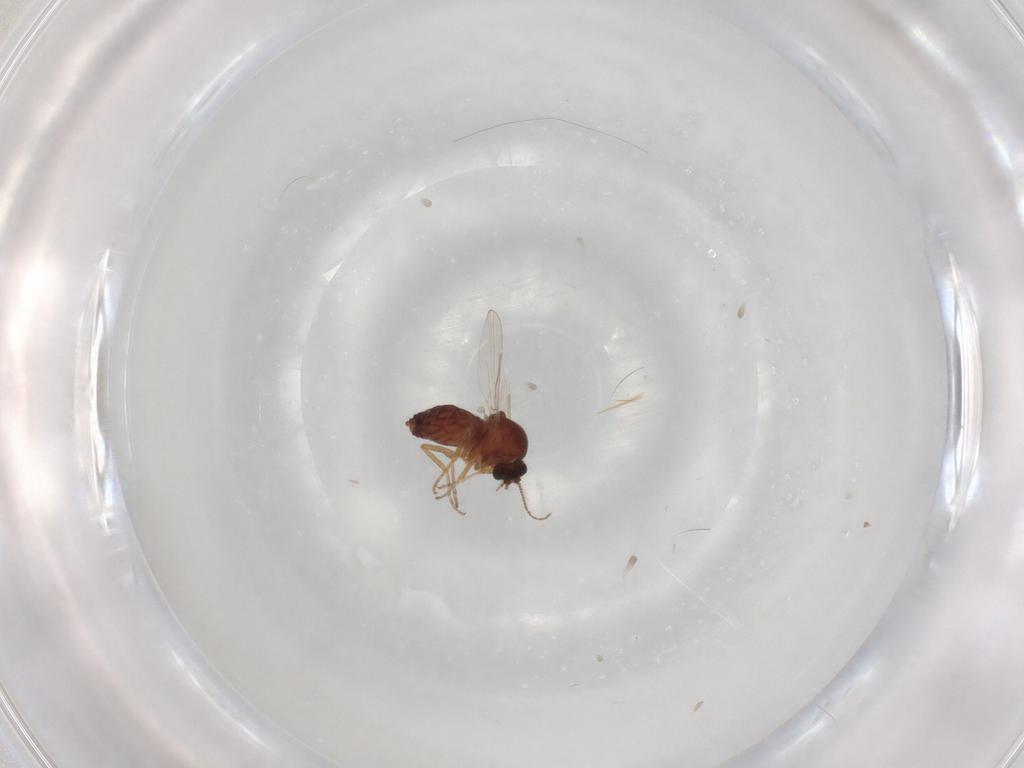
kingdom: Animalia
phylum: Arthropoda
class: Insecta
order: Diptera
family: Ceratopogonidae
